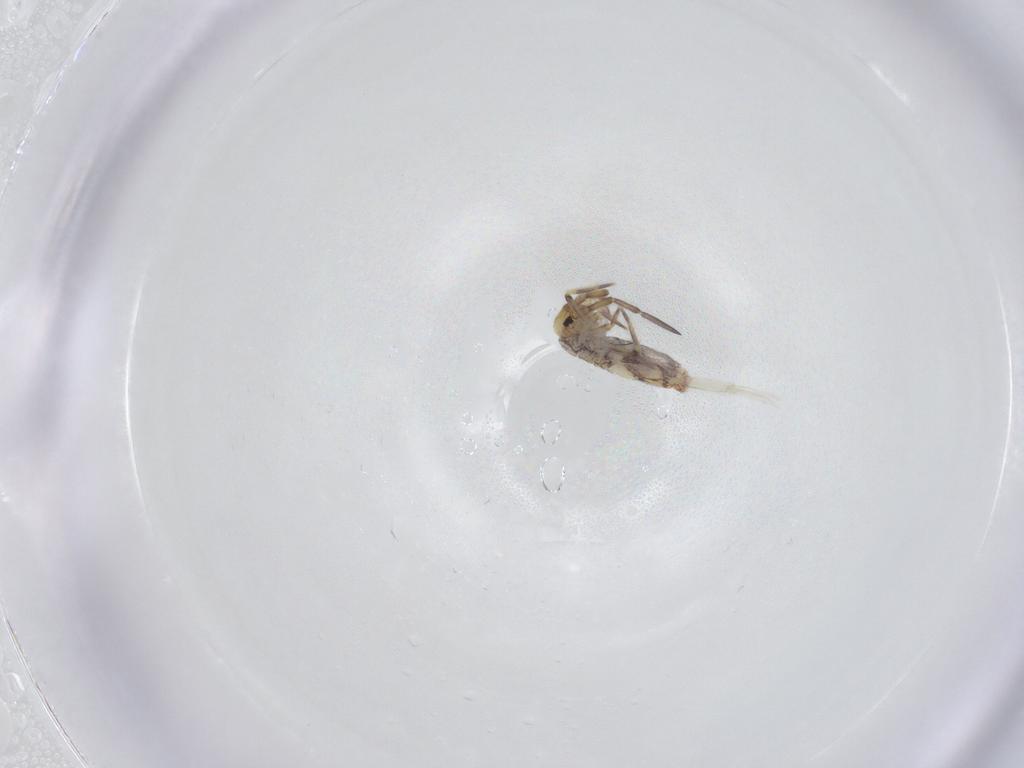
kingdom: Animalia
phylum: Arthropoda
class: Collembola
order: Entomobryomorpha
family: Entomobryidae
